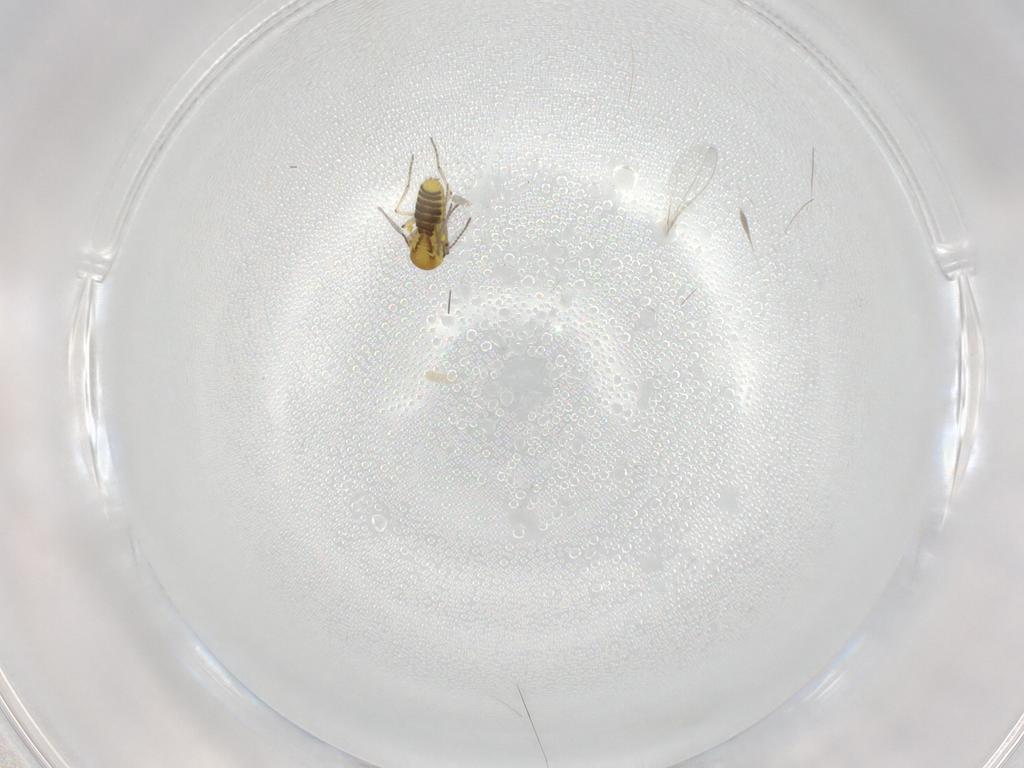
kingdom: Animalia
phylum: Arthropoda
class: Insecta
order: Diptera
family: Ceratopogonidae
